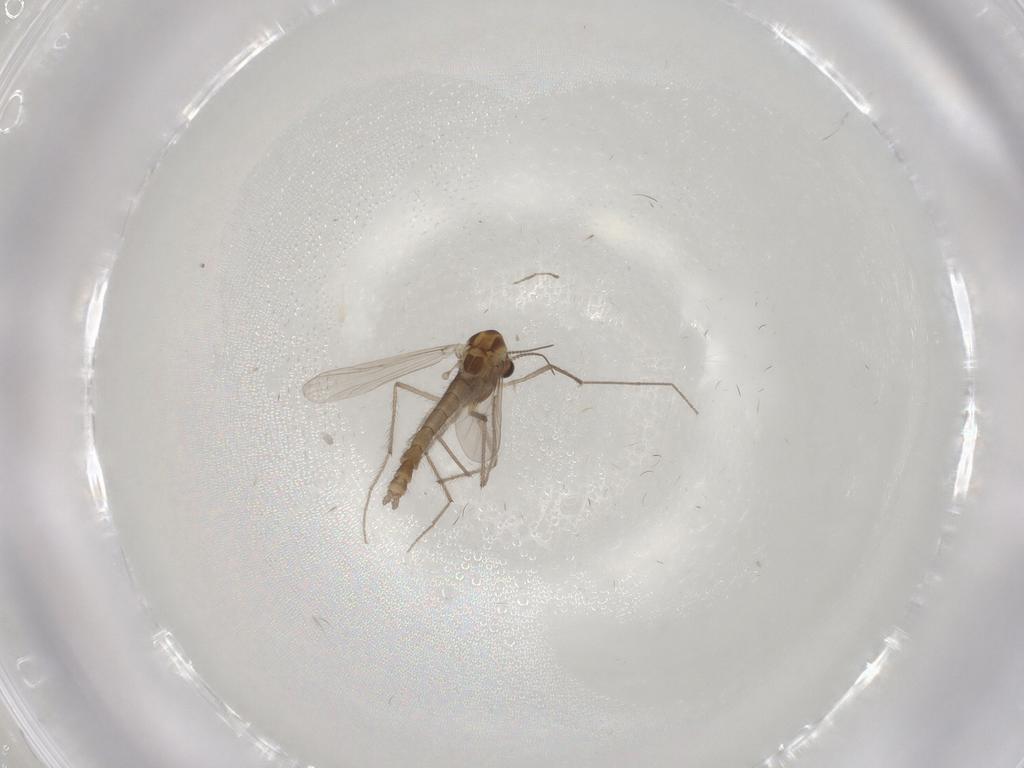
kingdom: Animalia
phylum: Arthropoda
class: Insecta
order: Diptera
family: Chironomidae
